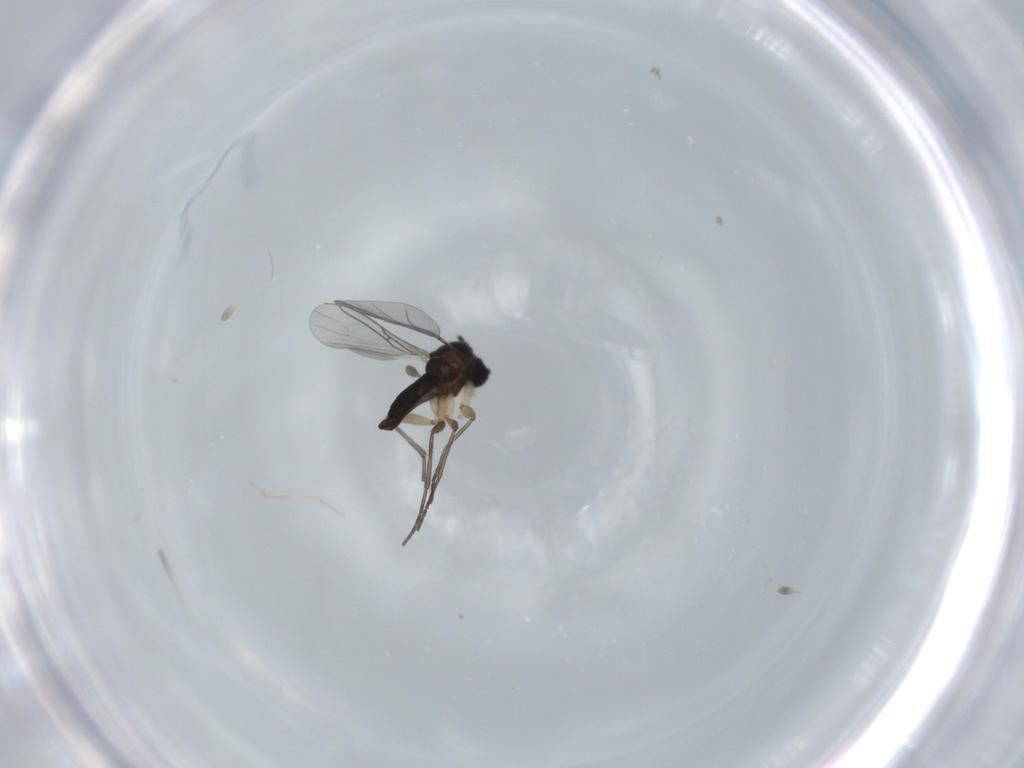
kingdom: Animalia
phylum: Arthropoda
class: Insecta
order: Diptera
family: Sciaridae
